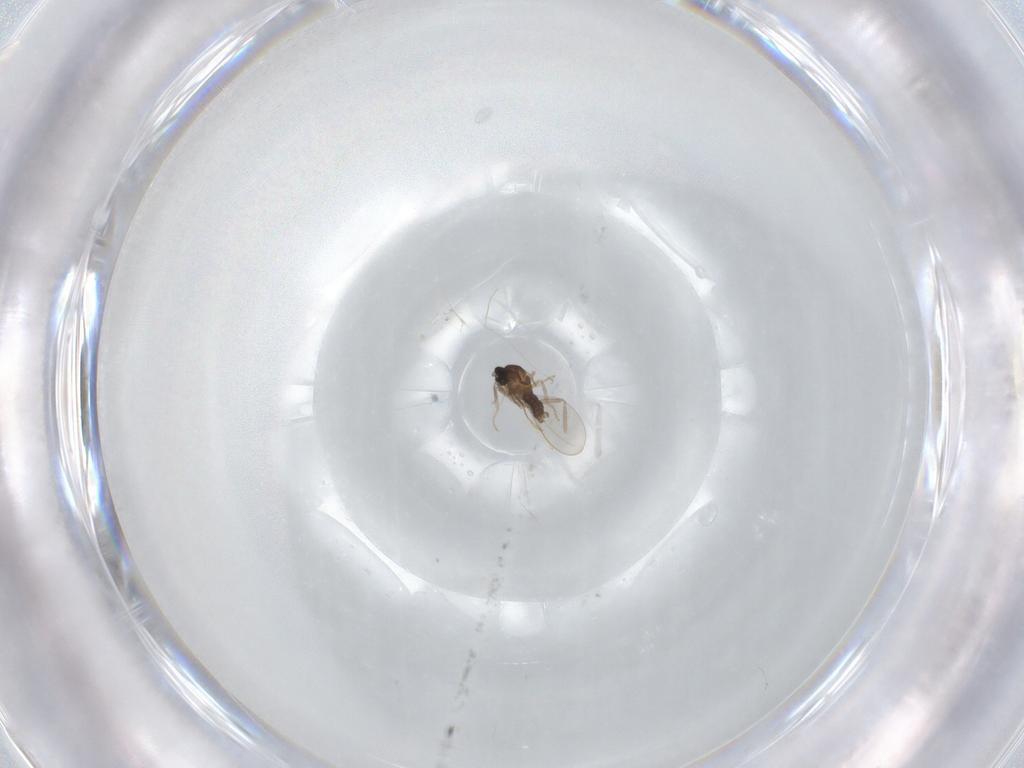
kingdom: Animalia
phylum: Arthropoda
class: Insecta
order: Diptera
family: Cecidomyiidae
